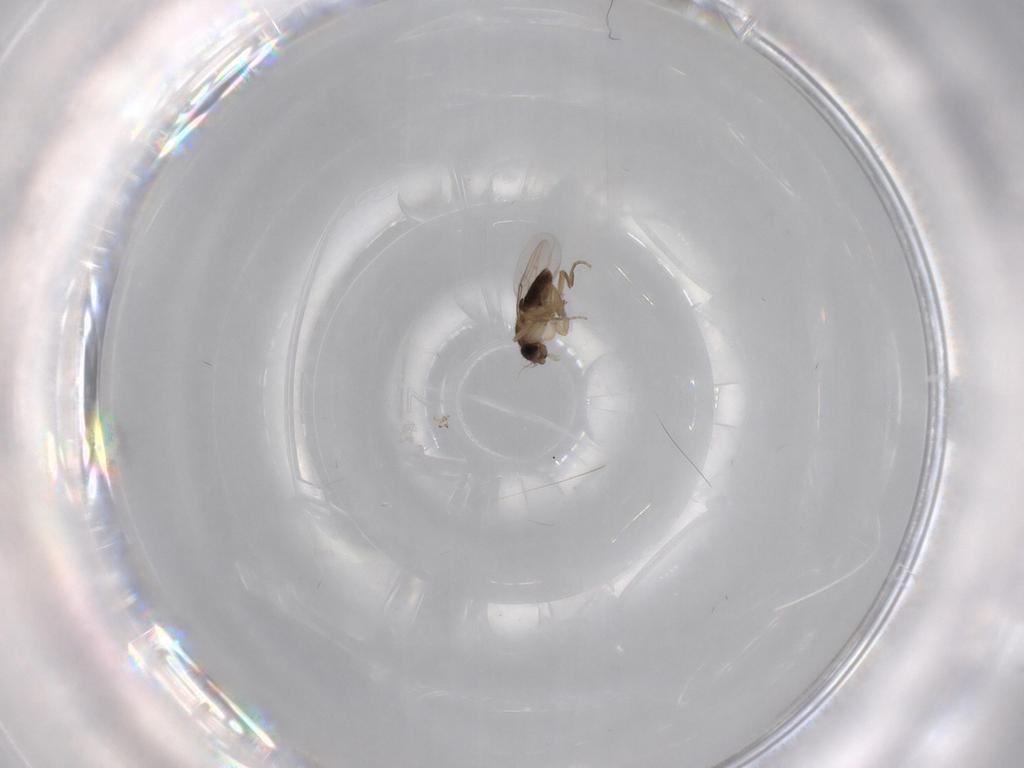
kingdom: Animalia
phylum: Arthropoda
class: Insecta
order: Diptera
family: Phoridae
